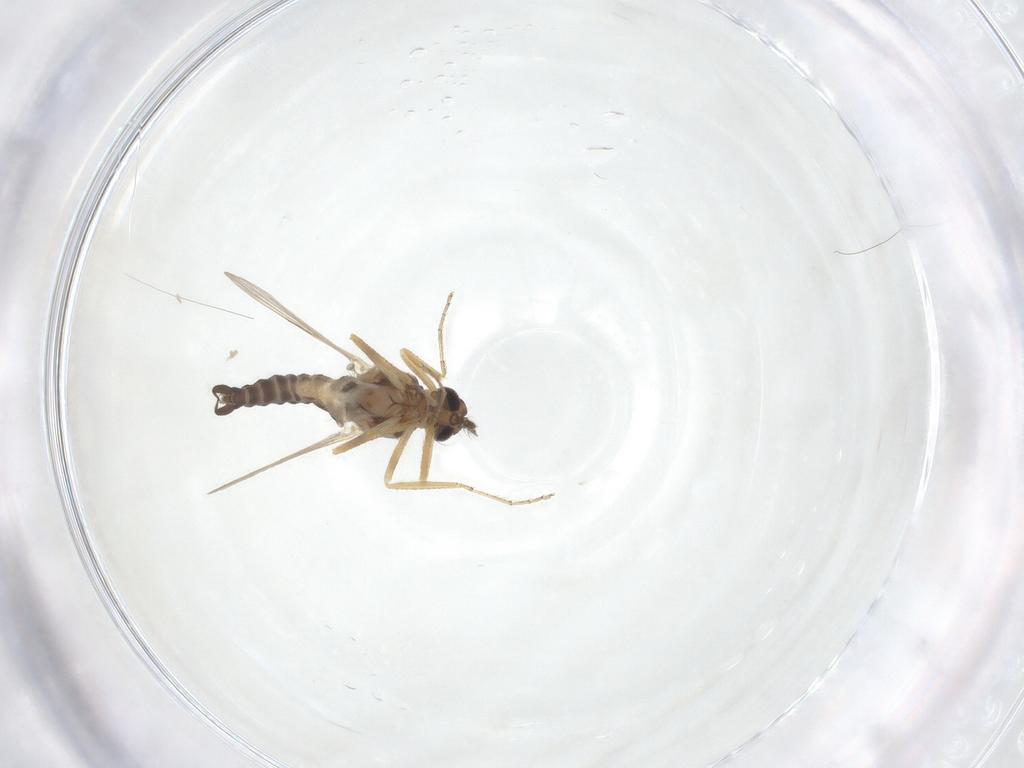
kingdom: Animalia
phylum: Arthropoda
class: Insecta
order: Diptera
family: Ceratopogonidae
